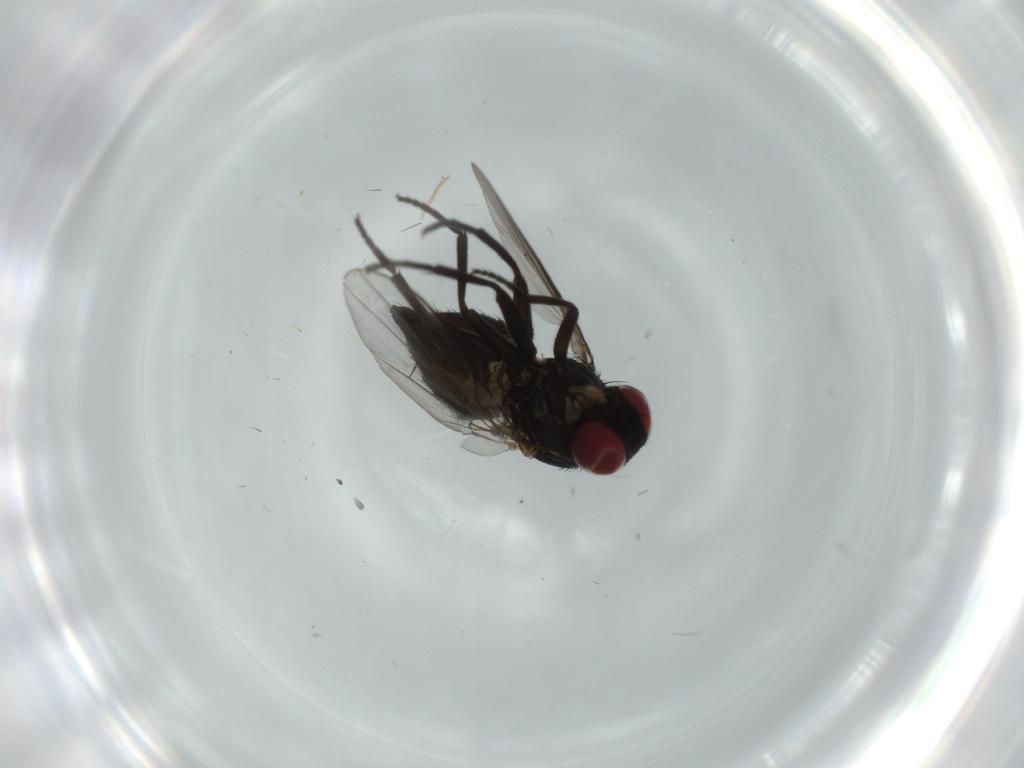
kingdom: Animalia
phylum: Arthropoda
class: Insecta
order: Diptera
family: Agromyzidae
